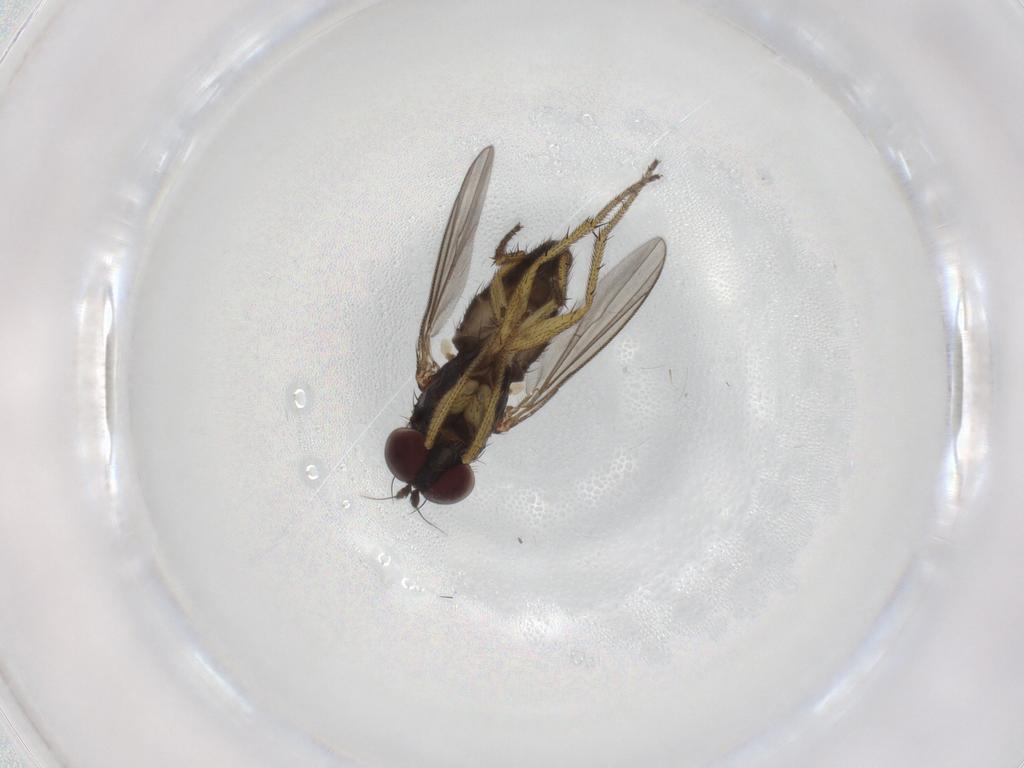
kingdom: Animalia
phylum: Arthropoda
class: Insecta
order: Diptera
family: Dolichopodidae
